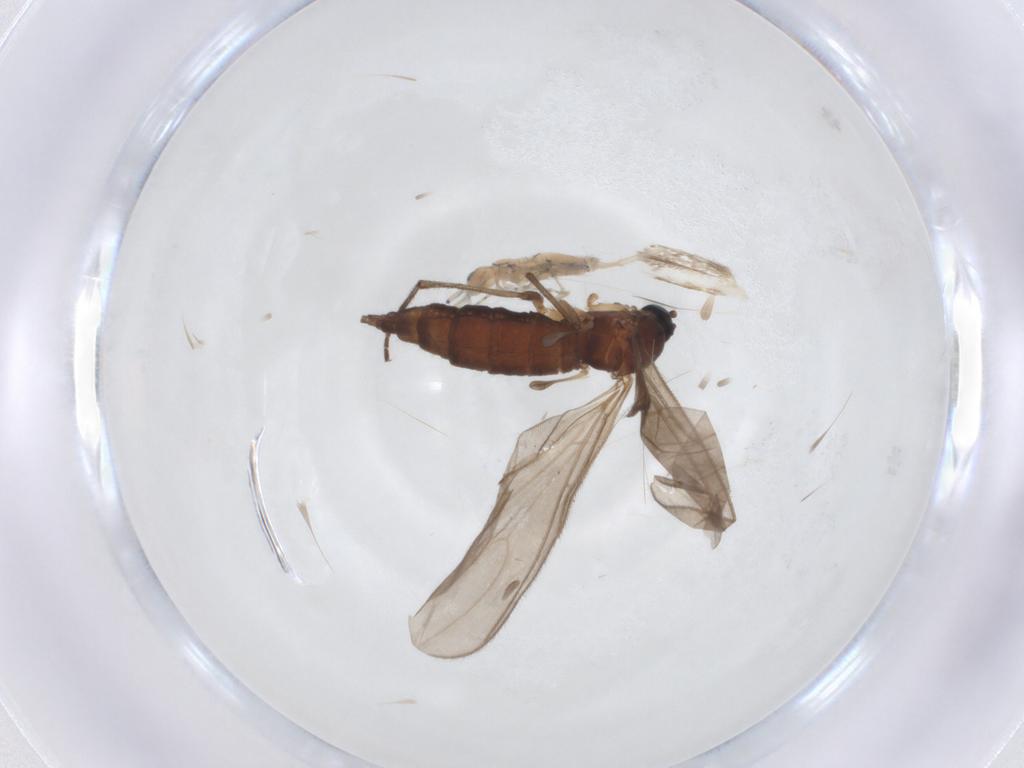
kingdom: Animalia
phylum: Arthropoda
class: Insecta
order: Diptera
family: Sciaridae
